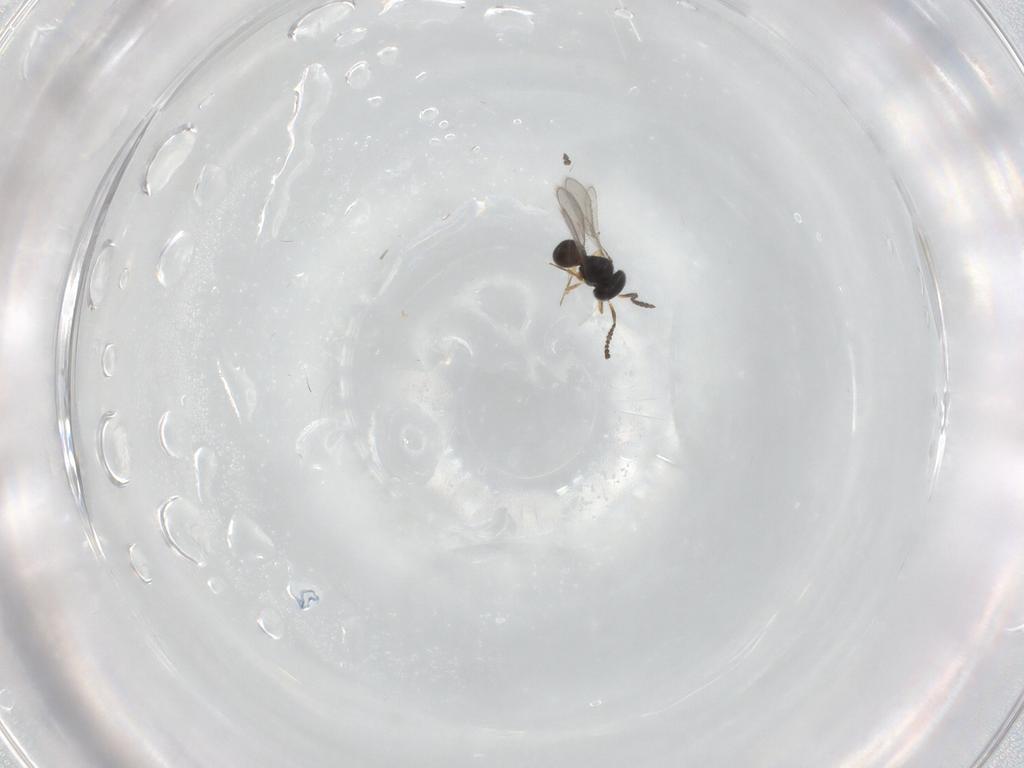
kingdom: Animalia
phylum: Arthropoda
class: Insecta
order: Hymenoptera
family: Scelionidae
